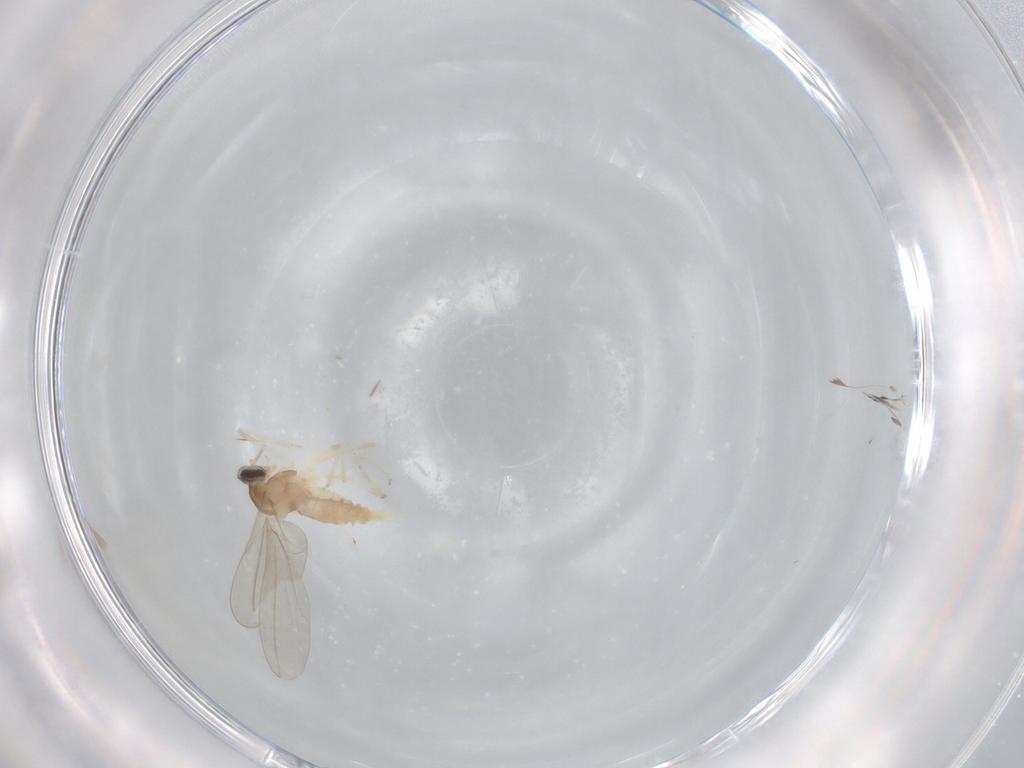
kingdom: Animalia
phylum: Arthropoda
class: Insecta
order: Diptera
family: Cecidomyiidae
